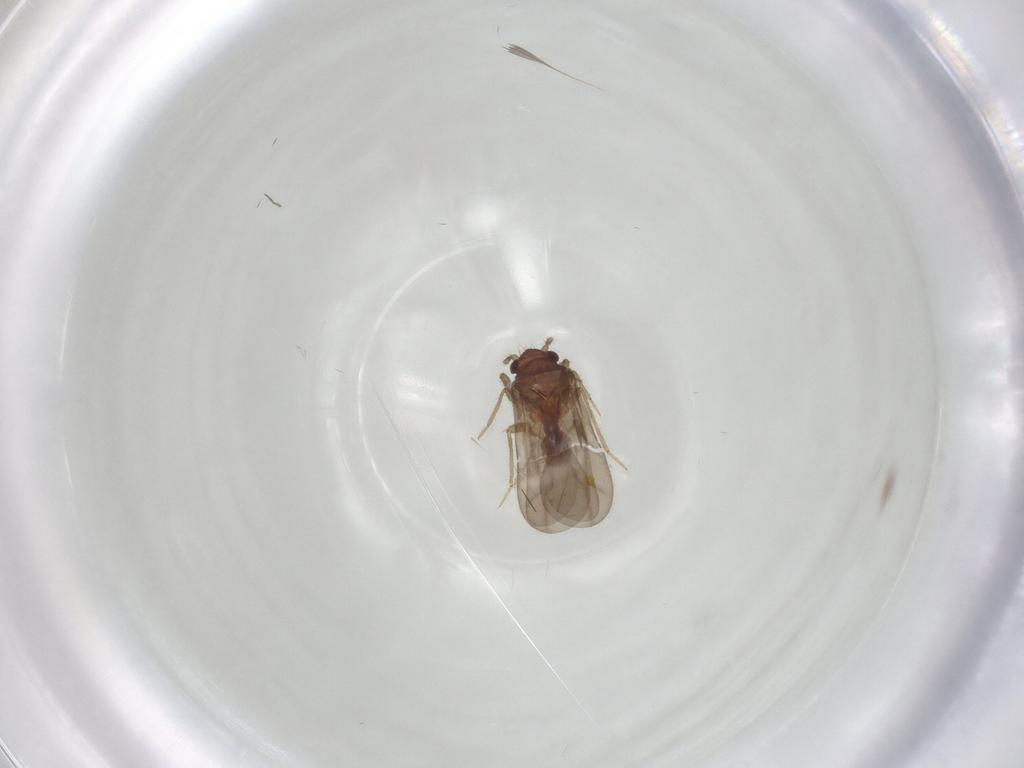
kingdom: Animalia
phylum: Arthropoda
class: Insecta
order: Hemiptera
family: Ceratocombidae
